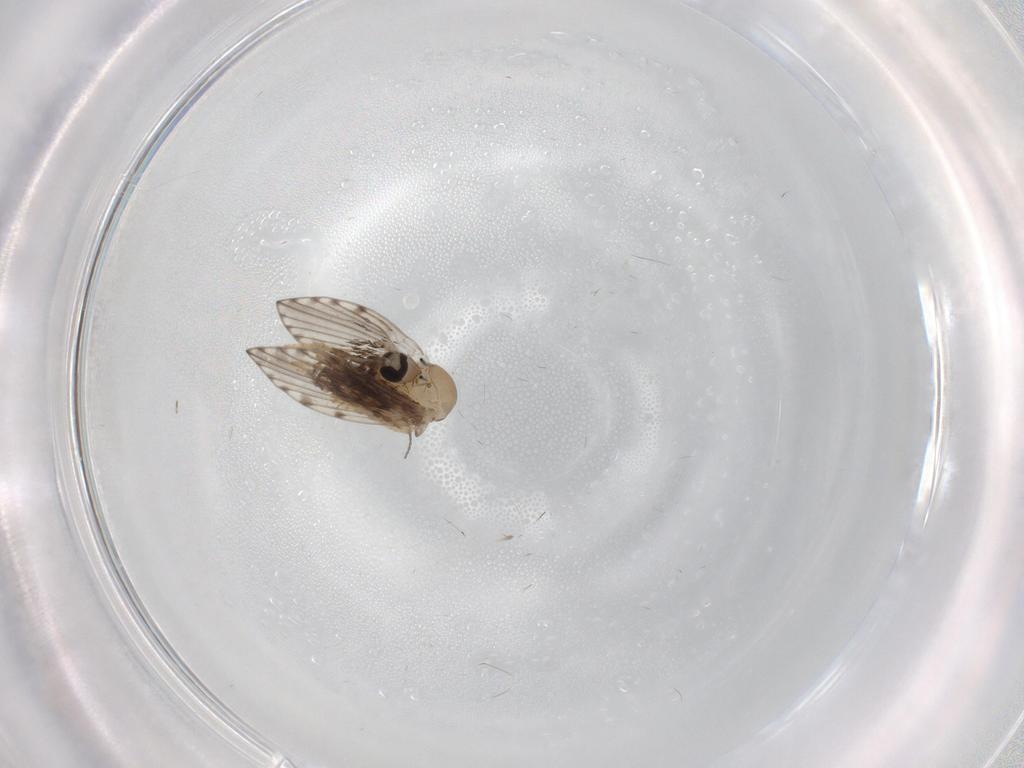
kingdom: Animalia
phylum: Arthropoda
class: Insecta
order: Diptera
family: Psychodidae
